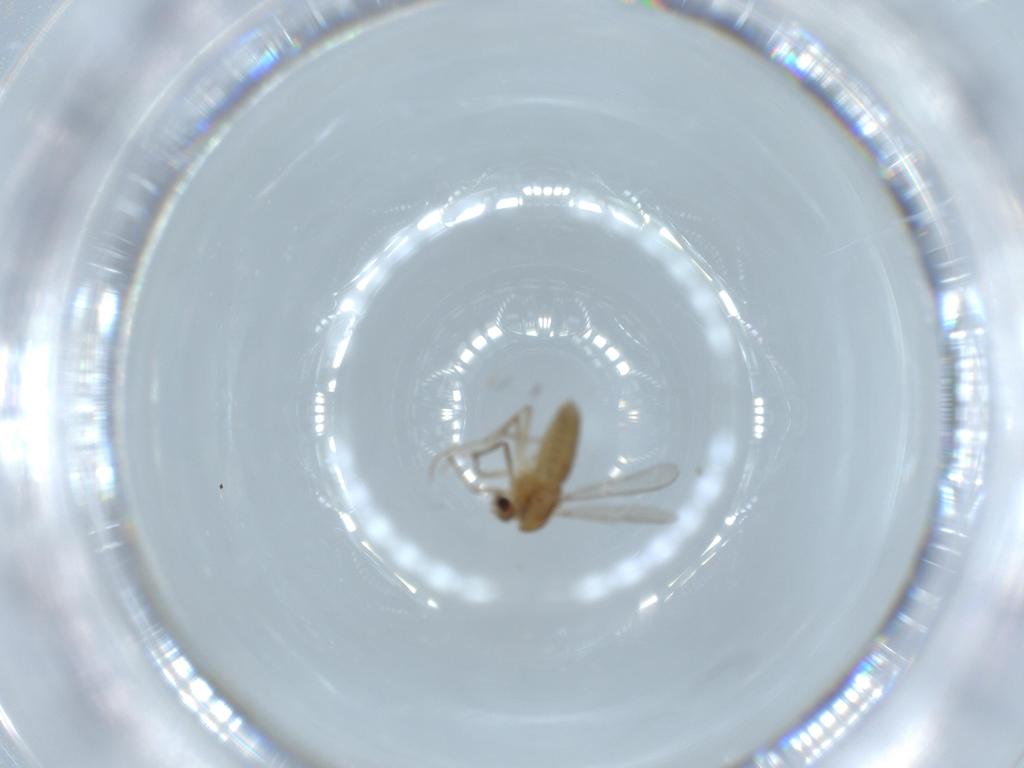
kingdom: Animalia
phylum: Arthropoda
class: Insecta
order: Diptera
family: Chironomidae
